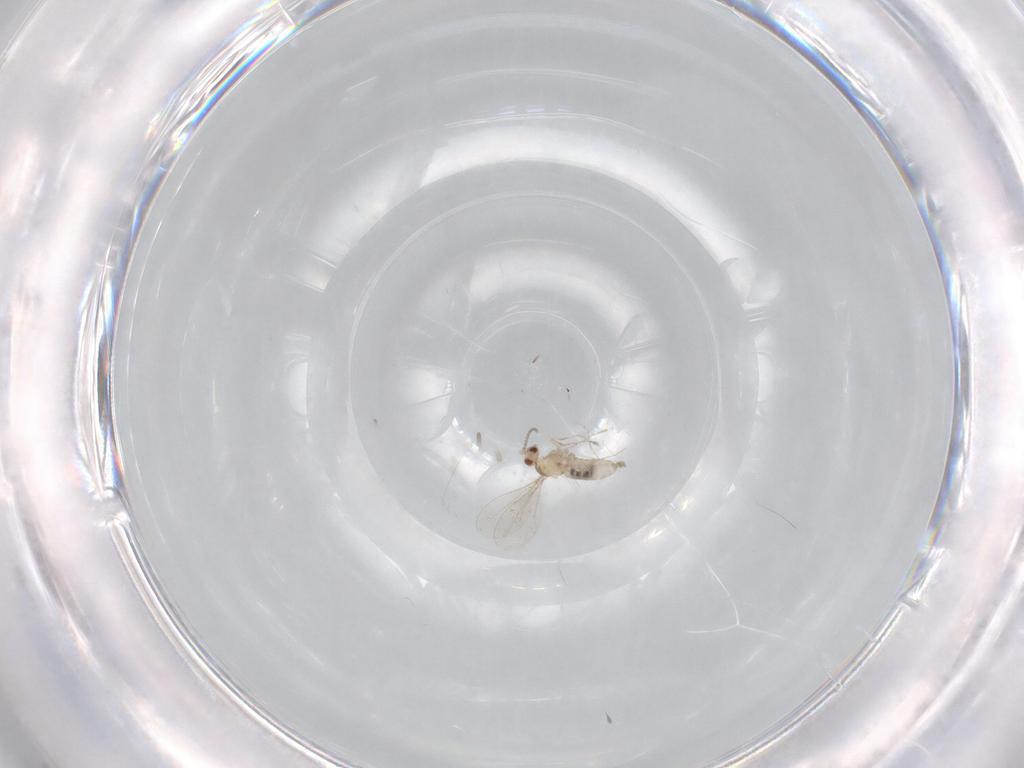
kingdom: Animalia
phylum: Arthropoda
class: Insecta
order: Diptera
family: Cecidomyiidae
